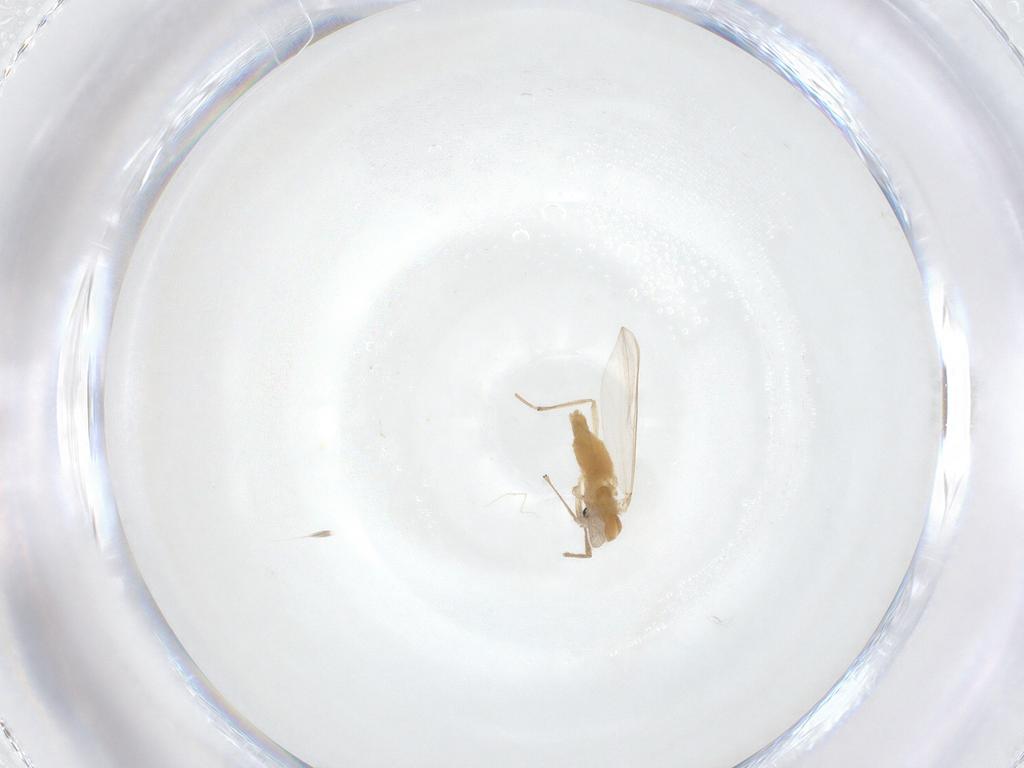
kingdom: Animalia
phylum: Arthropoda
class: Insecta
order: Diptera
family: Chironomidae
